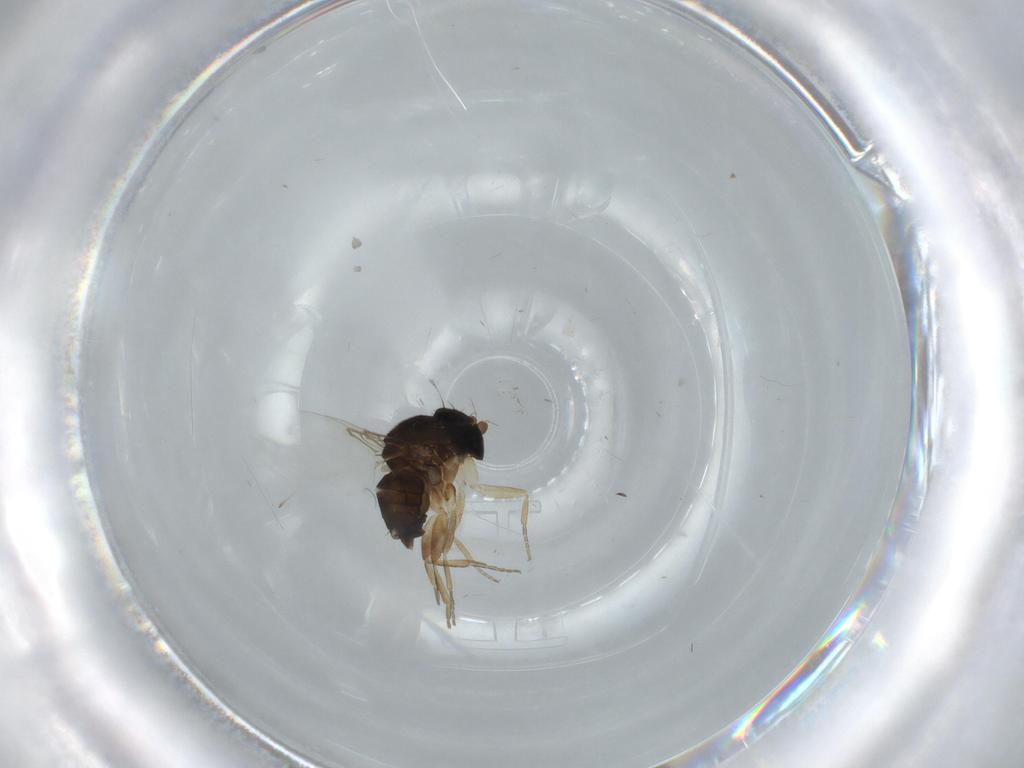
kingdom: Animalia
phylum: Arthropoda
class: Insecta
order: Diptera
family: Phoridae
